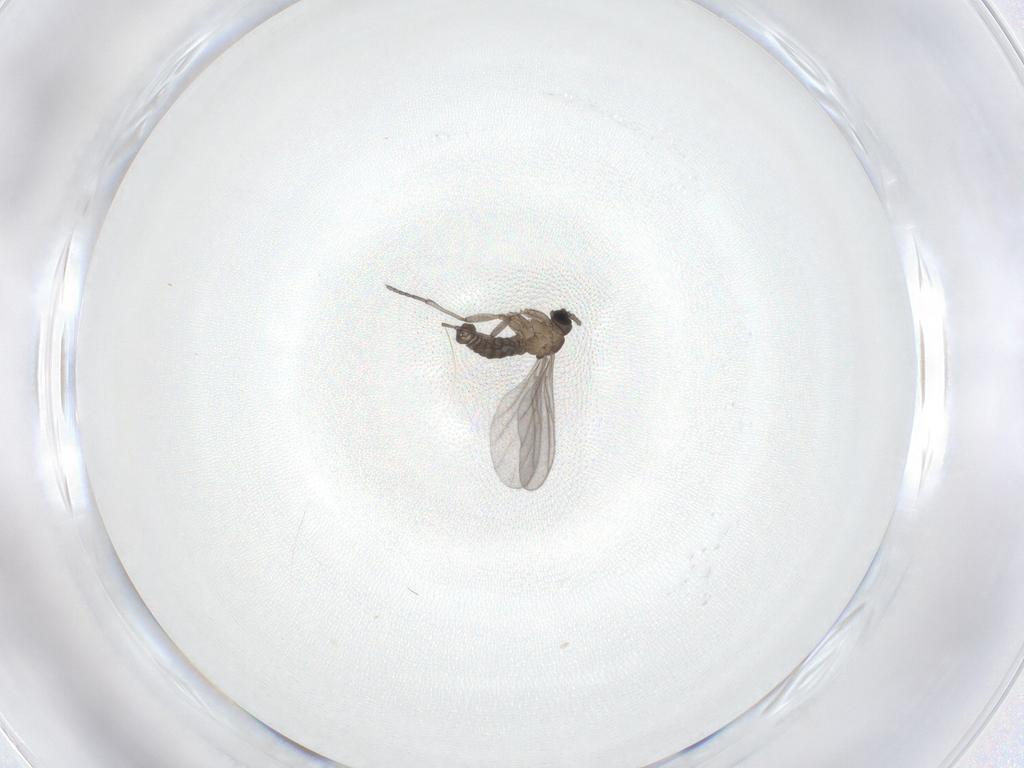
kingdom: Animalia
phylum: Arthropoda
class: Insecta
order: Diptera
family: Sciaridae
